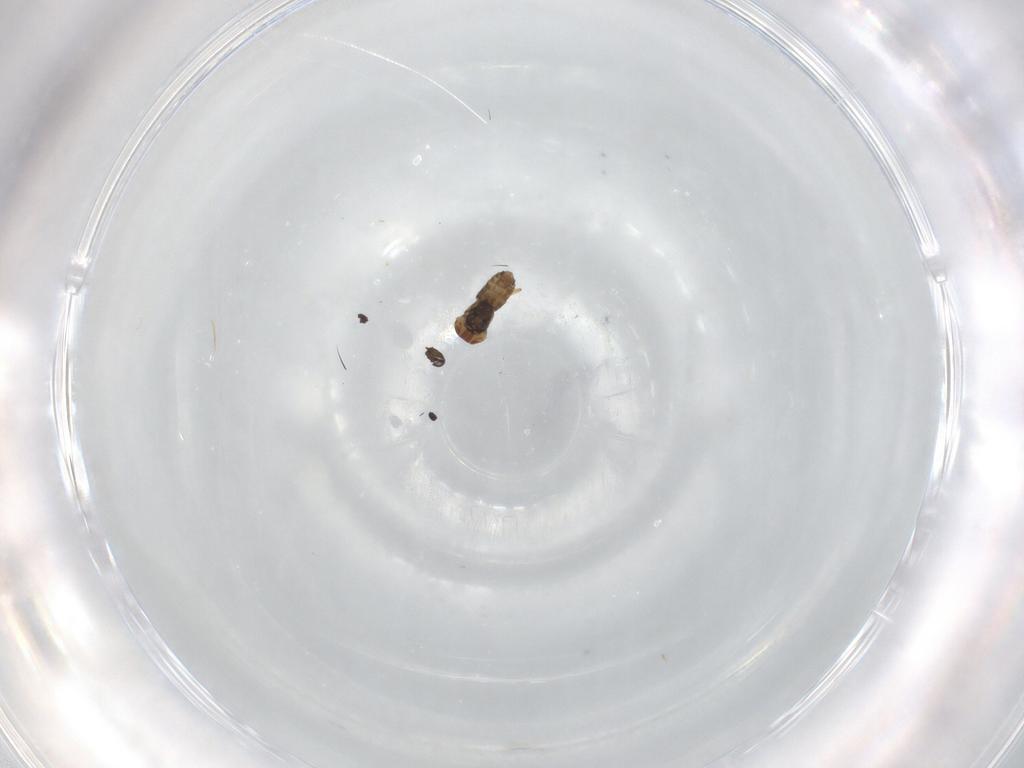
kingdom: Animalia
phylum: Arthropoda
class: Insecta
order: Diptera
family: Ceratopogonidae
